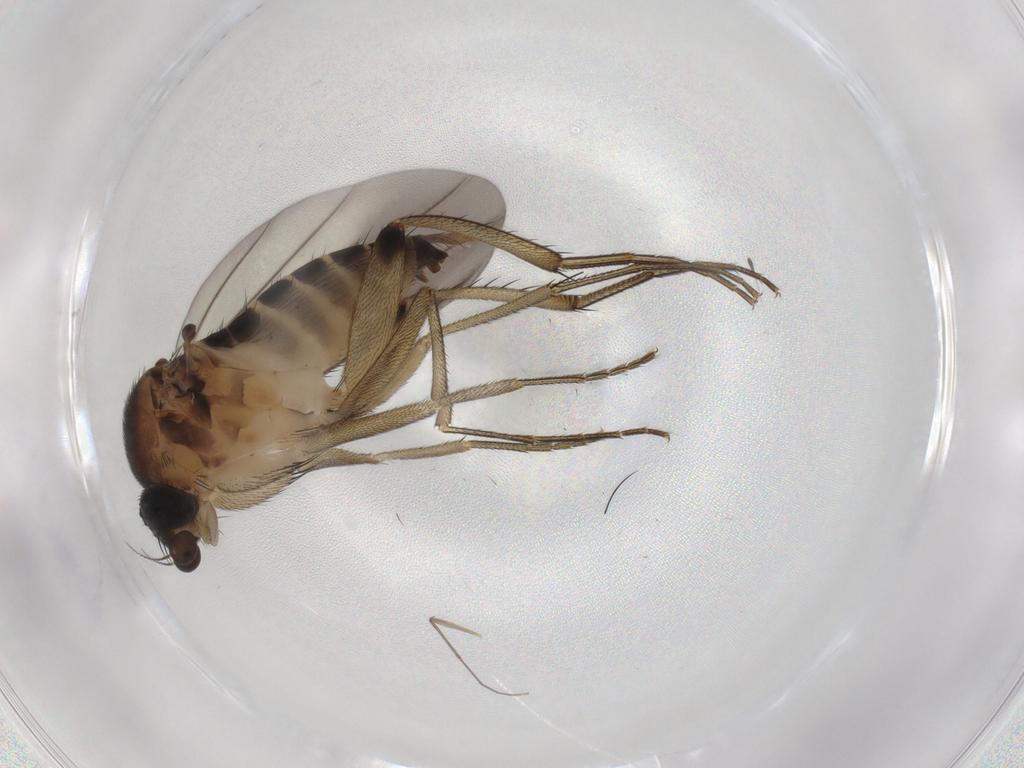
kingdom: Animalia
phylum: Arthropoda
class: Insecta
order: Diptera
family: Phoridae
